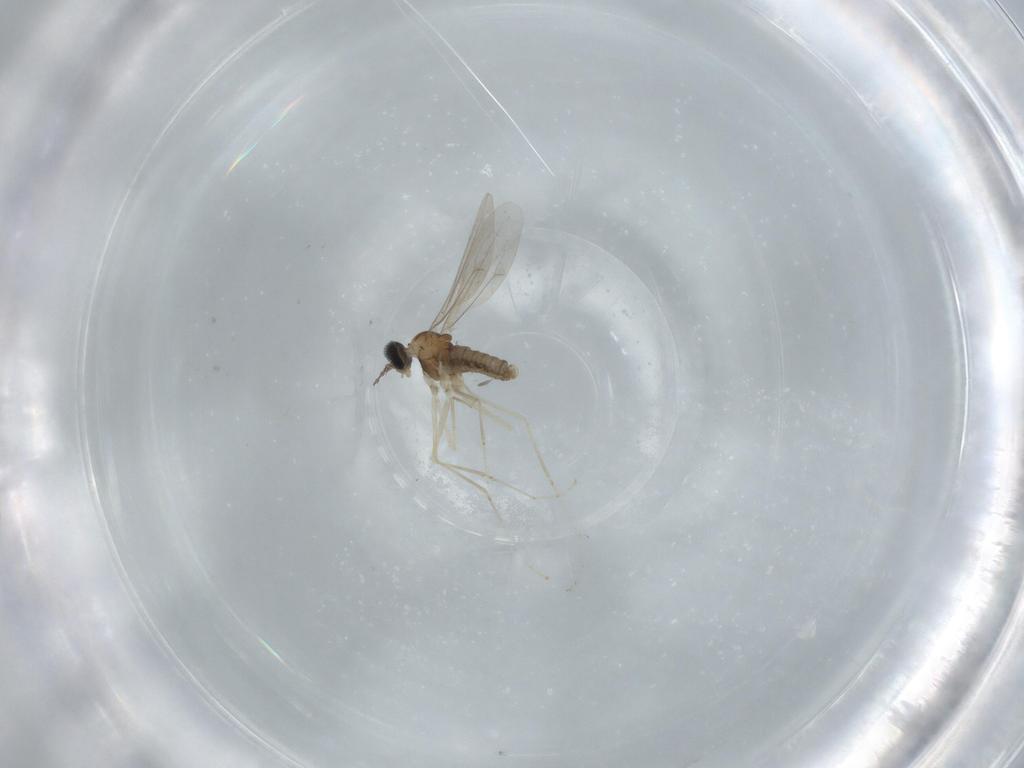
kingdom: Animalia
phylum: Arthropoda
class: Insecta
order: Diptera
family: Cecidomyiidae
